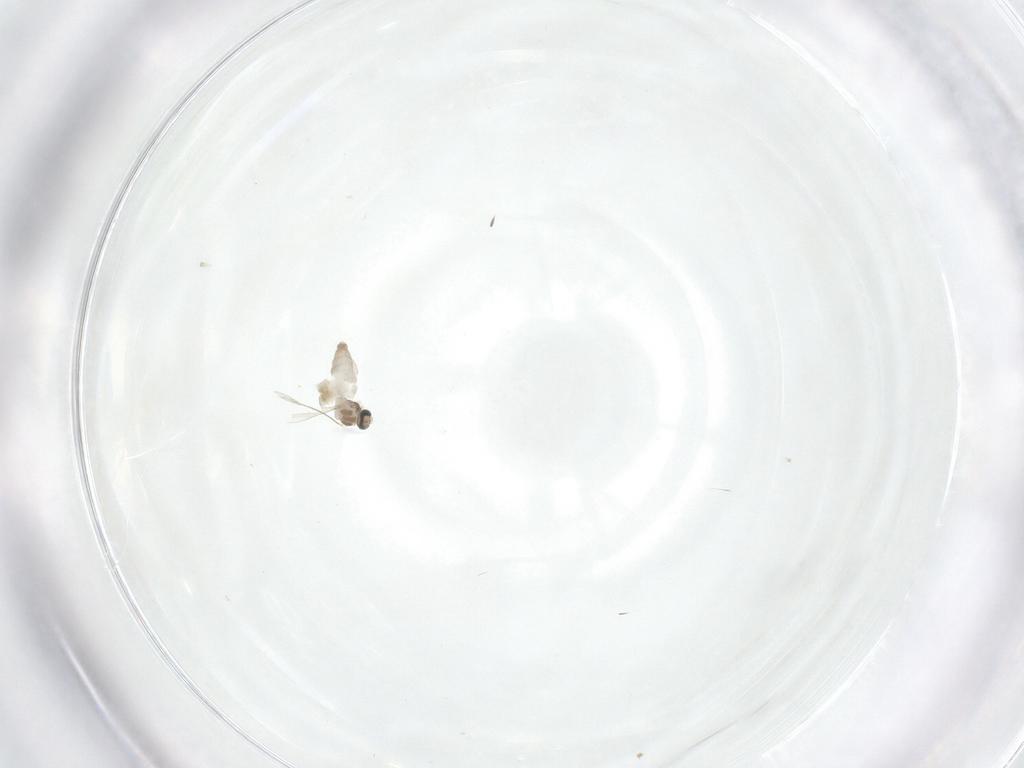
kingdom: Animalia
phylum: Arthropoda
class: Insecta
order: Diptera
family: Cecidomyiidae
